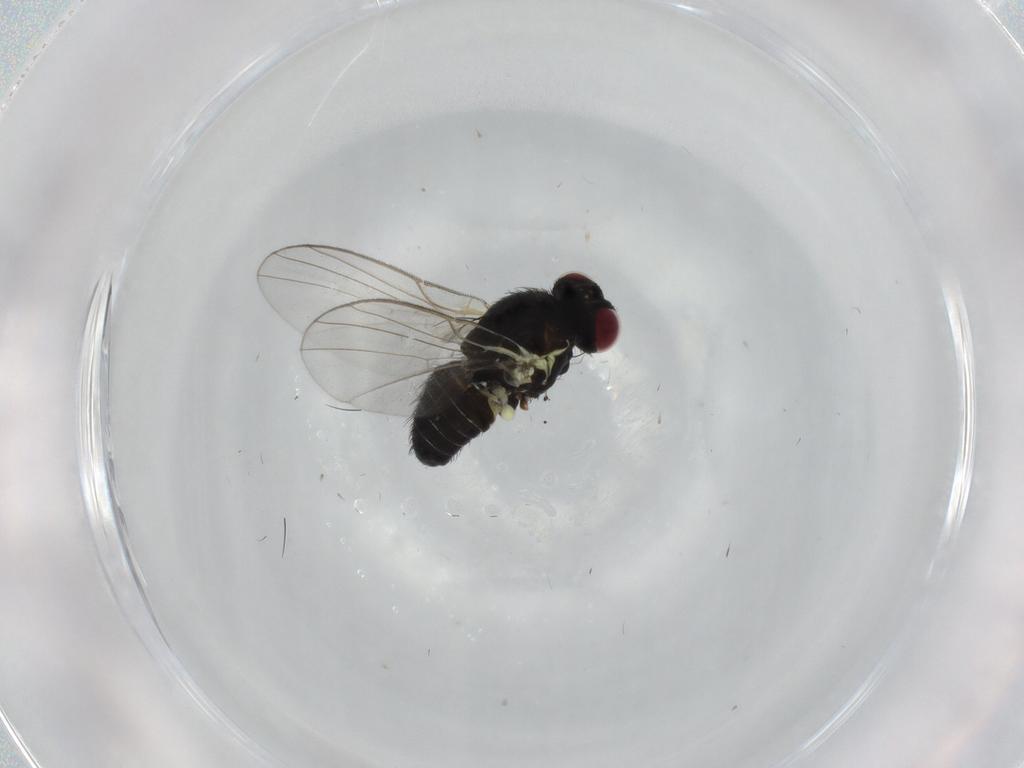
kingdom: Animalia
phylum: Arthropoda
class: Insecta
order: Diptera
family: Agromyzidae
